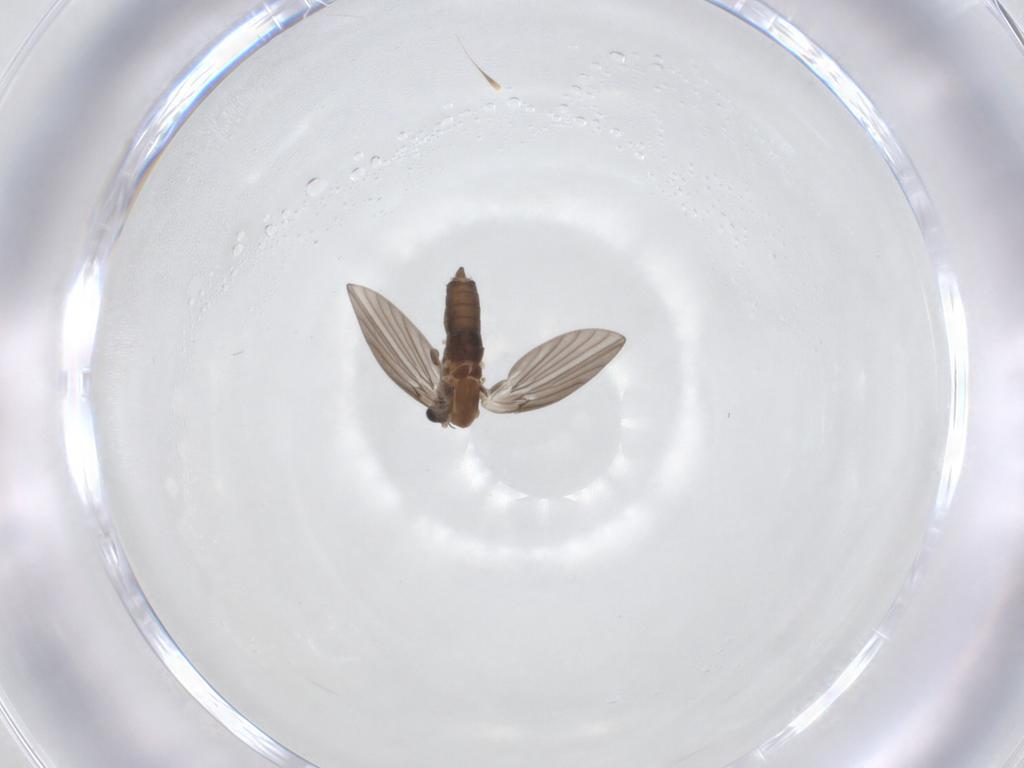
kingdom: Animalia
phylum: Arthropoda
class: Insecta
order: Diptera
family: Psychodidae
